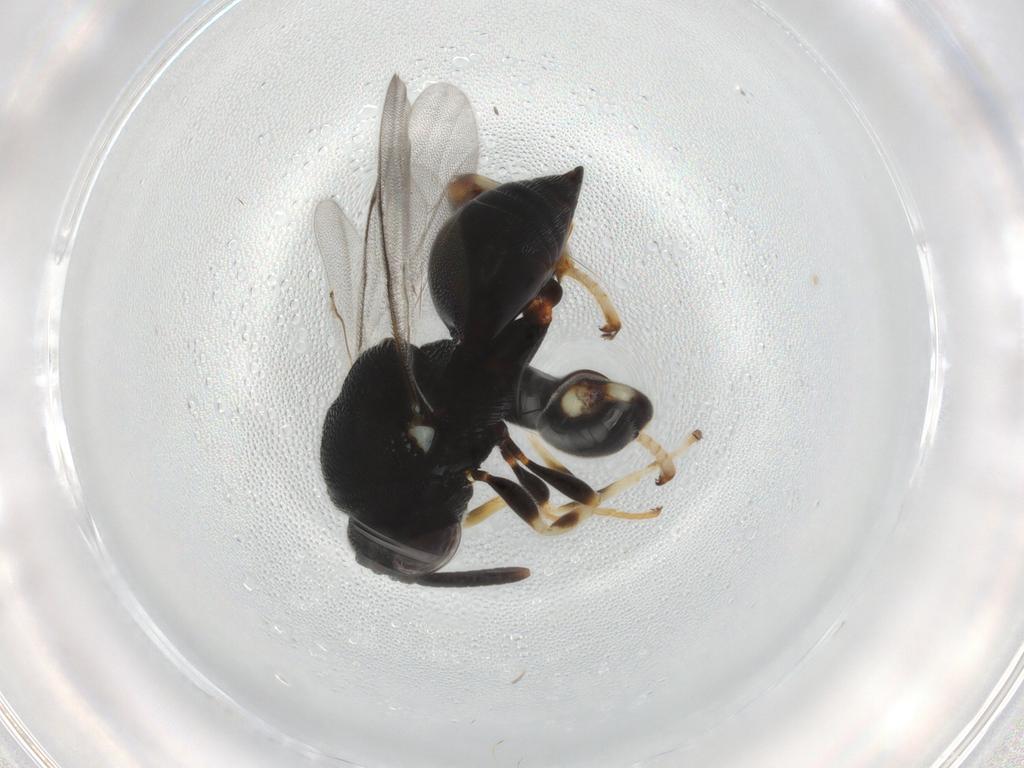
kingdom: Animalia
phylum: Arthropoda
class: Insecta
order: Hymenoptera
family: Chalcididae
